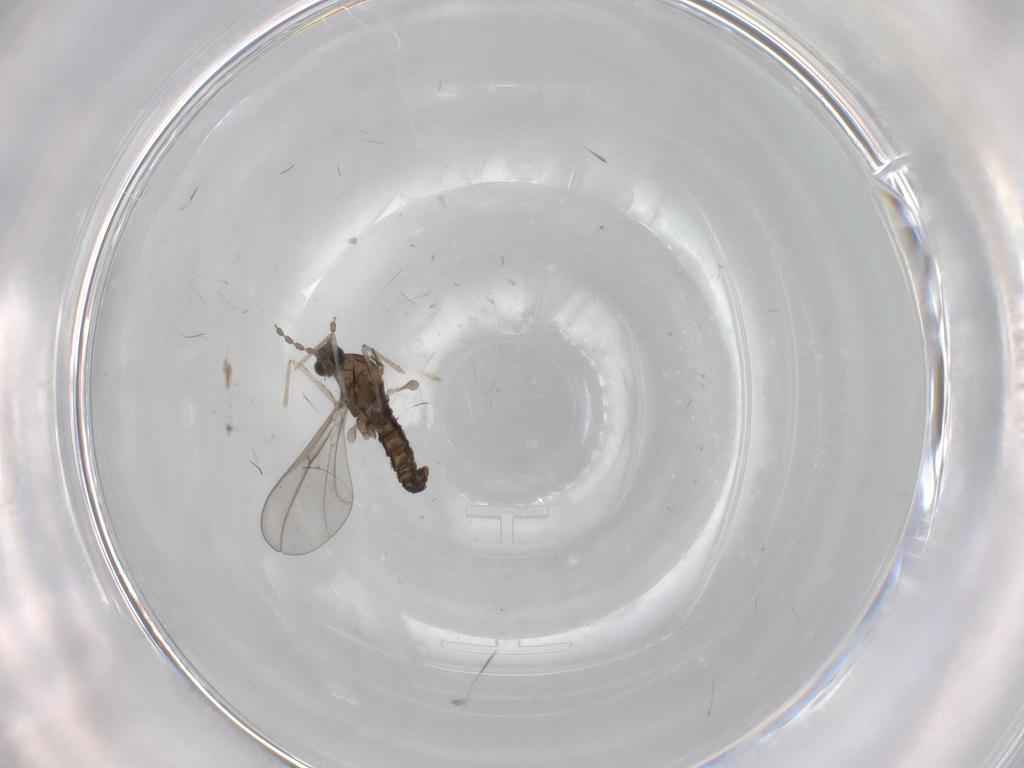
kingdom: Animalia
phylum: Arthropoda
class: Insecta
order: Diptera
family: Cecidomyiidae
